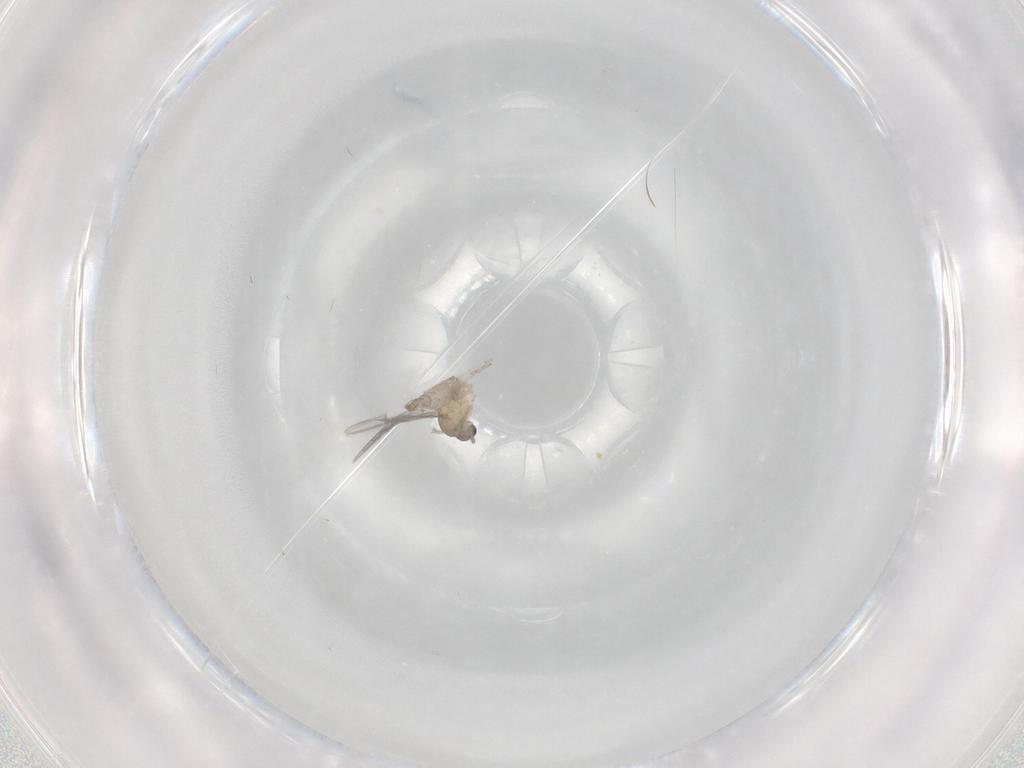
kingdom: Animalia
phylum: Arthropoda
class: Insecta
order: Diptera
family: Cecidomyiidae
